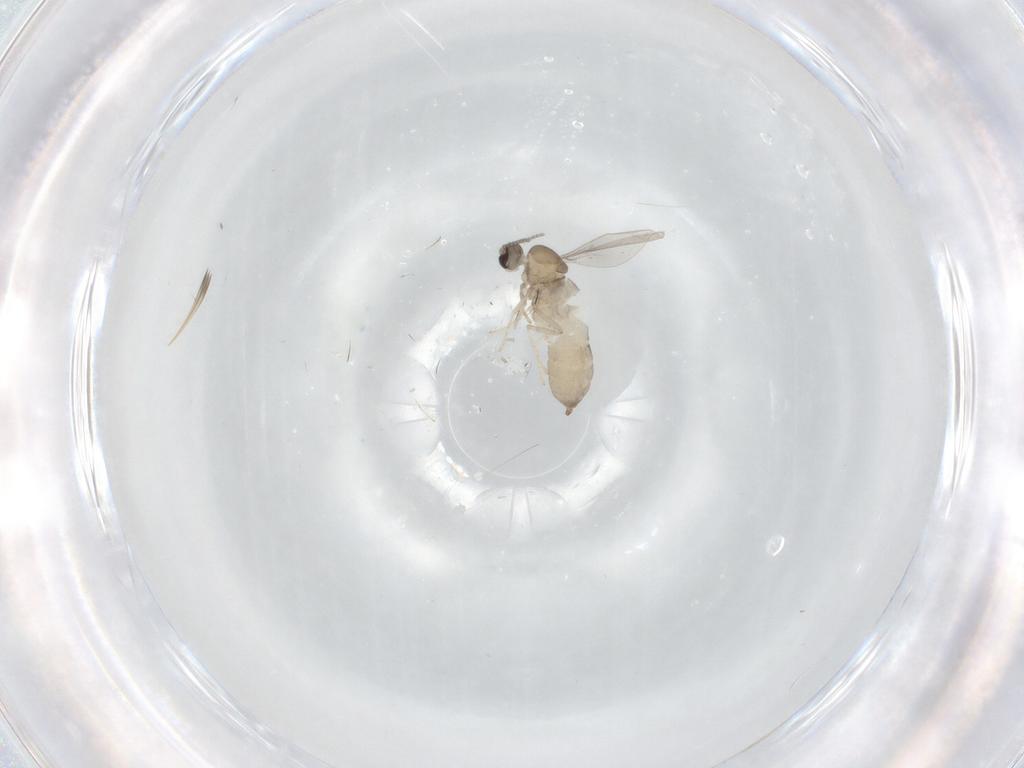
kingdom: Animalia
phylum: Arthropoda
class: Insecta
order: Diptera
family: Cecidomyiidae
